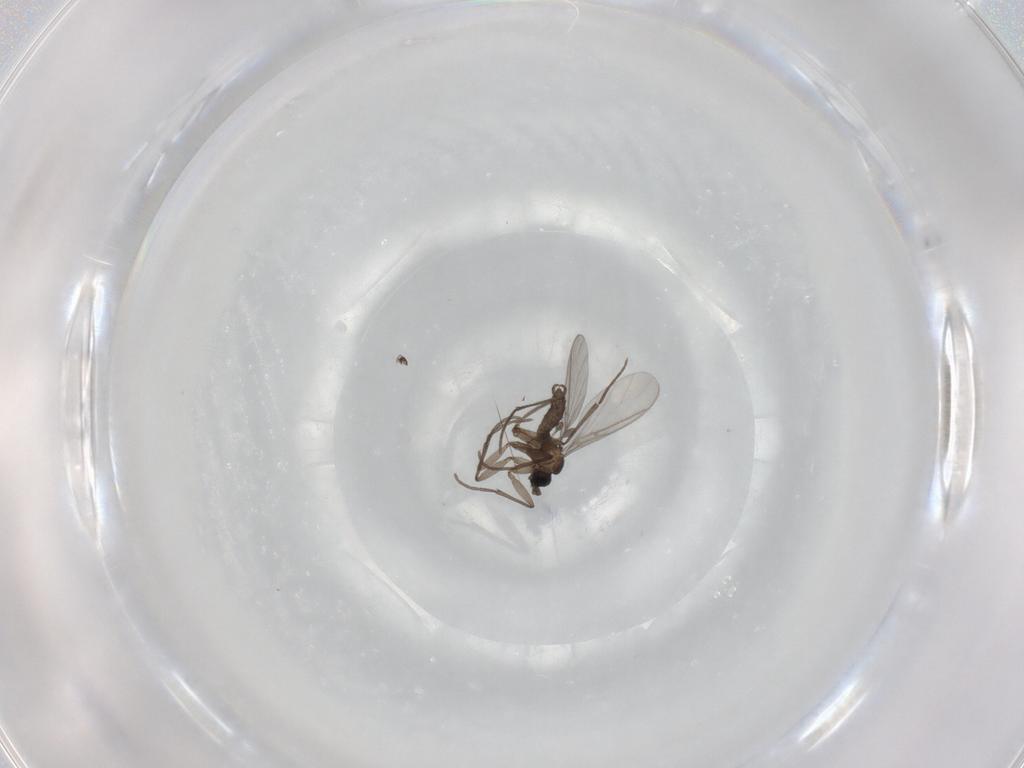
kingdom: Animalia
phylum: Arthropoda
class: Insecta
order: Diptera
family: Sciaridae
